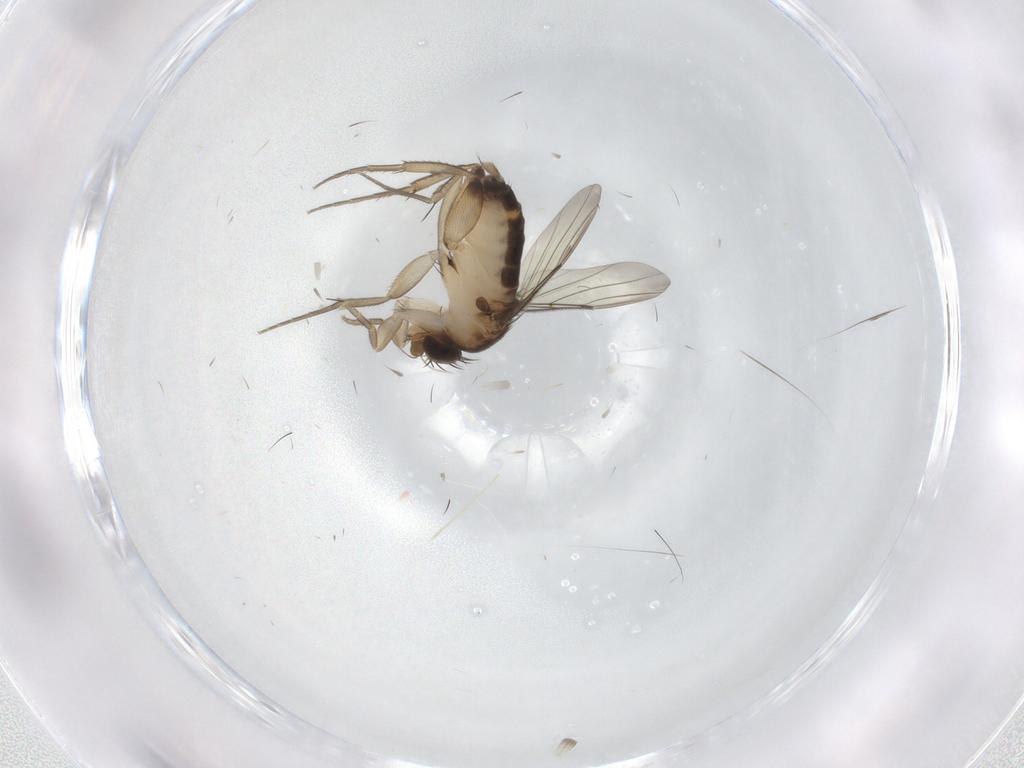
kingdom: Animalia
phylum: Arthropoda
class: Insecta
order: Diptera
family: Phoridae
